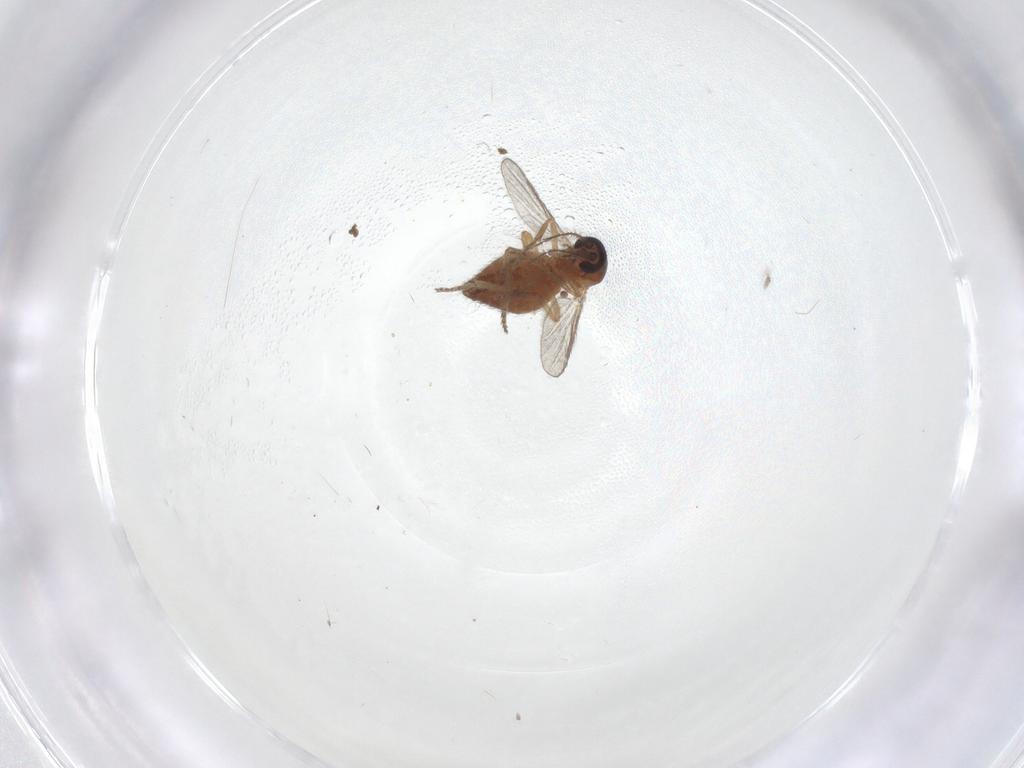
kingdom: Animalia
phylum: Arthropoda
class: Insecta
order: Diptera
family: Ceratopogonidae
